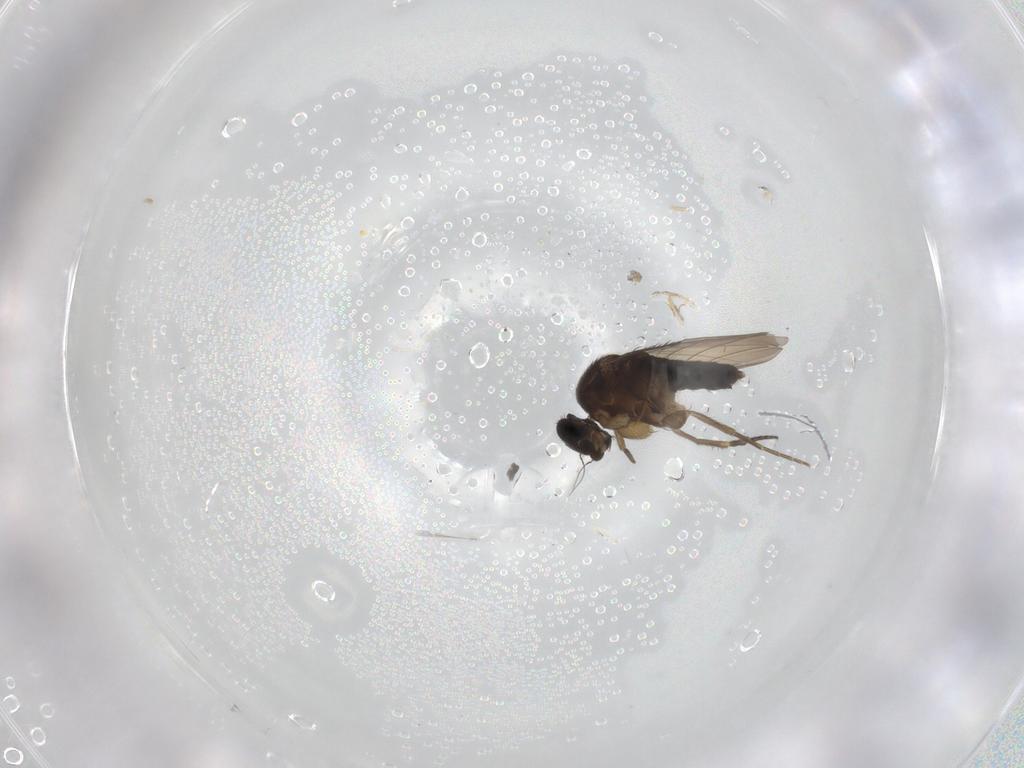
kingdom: Animalia
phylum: Arthropoda
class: Insecta
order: Diptera
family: Phoridae
